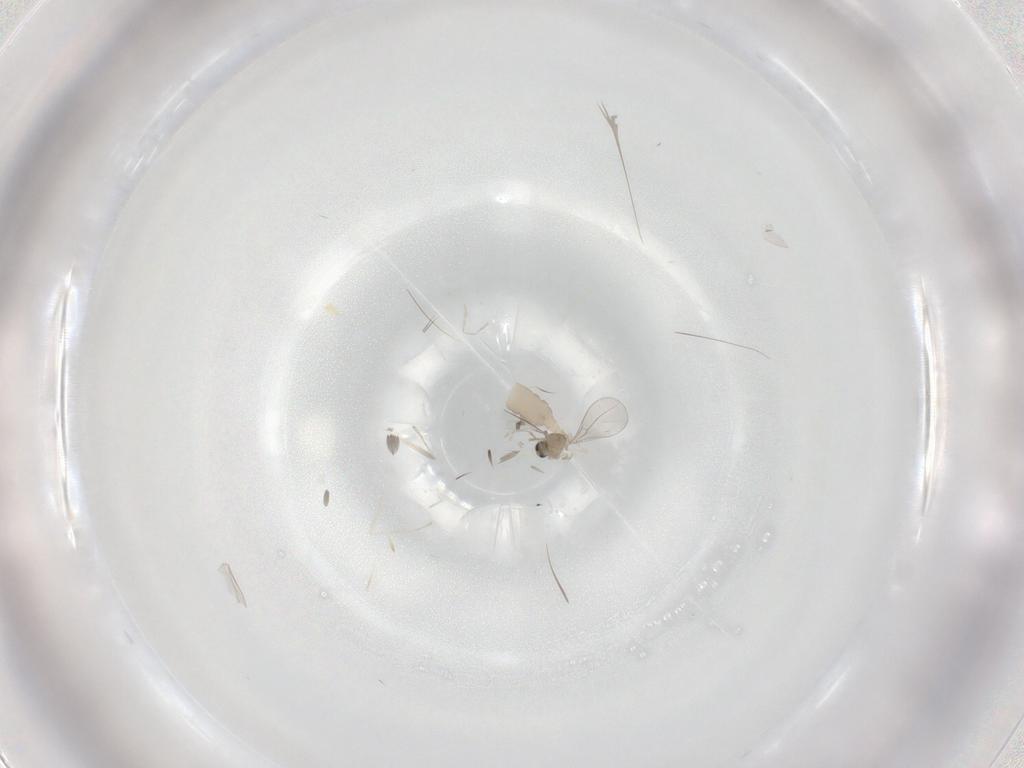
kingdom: Animalia
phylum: Arthropoda
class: Insecta
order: Diptera
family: Cecidomyiidae
